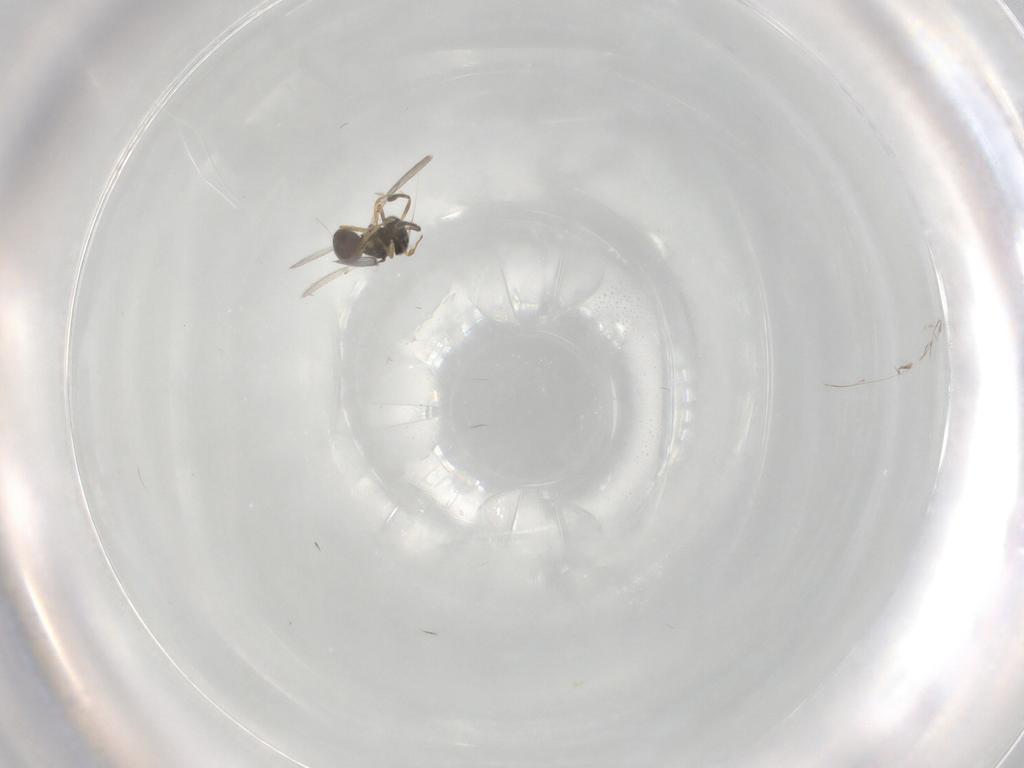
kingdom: Animalia
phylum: Arthropoda
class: Insecta
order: Hymenoptera
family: Scelionidae
